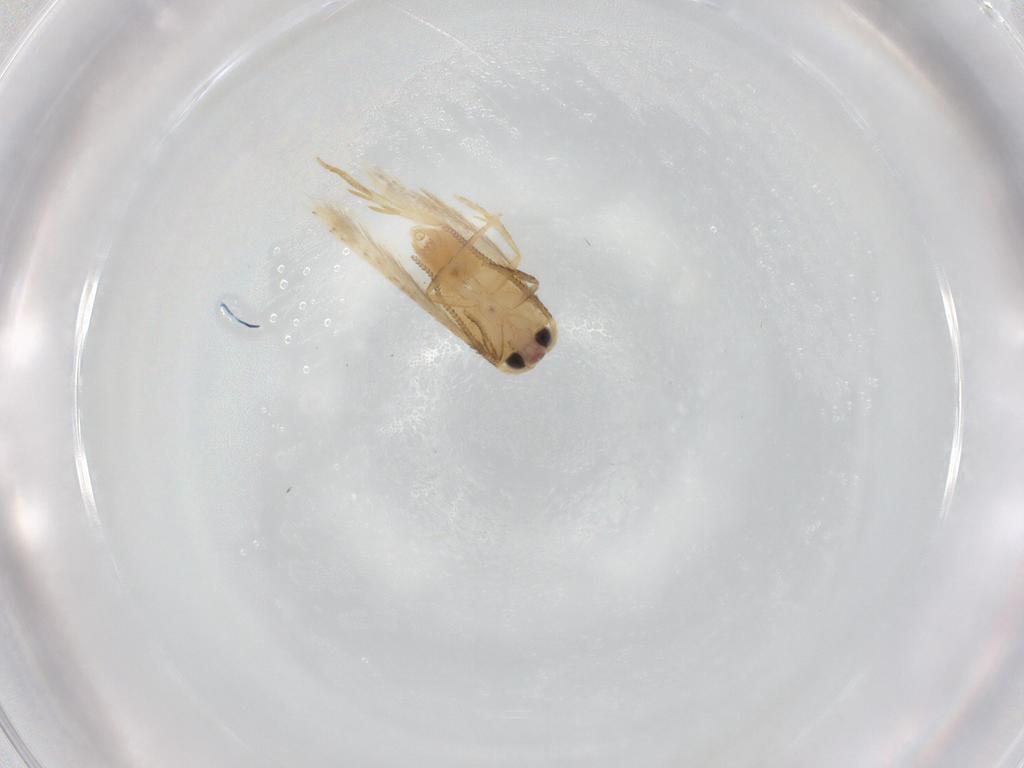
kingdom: Animalia
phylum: Arthropoda
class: Insecta
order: Lepidoptera
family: Nepticulidae
